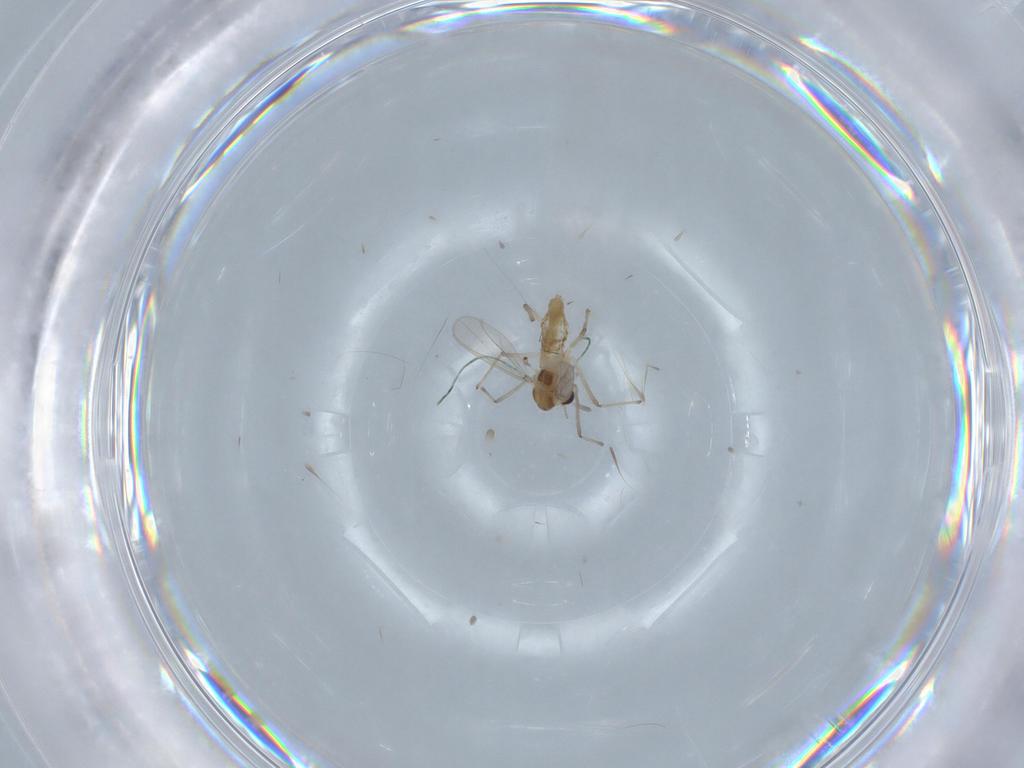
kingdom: Animalia
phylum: Arthropoda
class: Insecta
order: Diptera
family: Chironomidae
